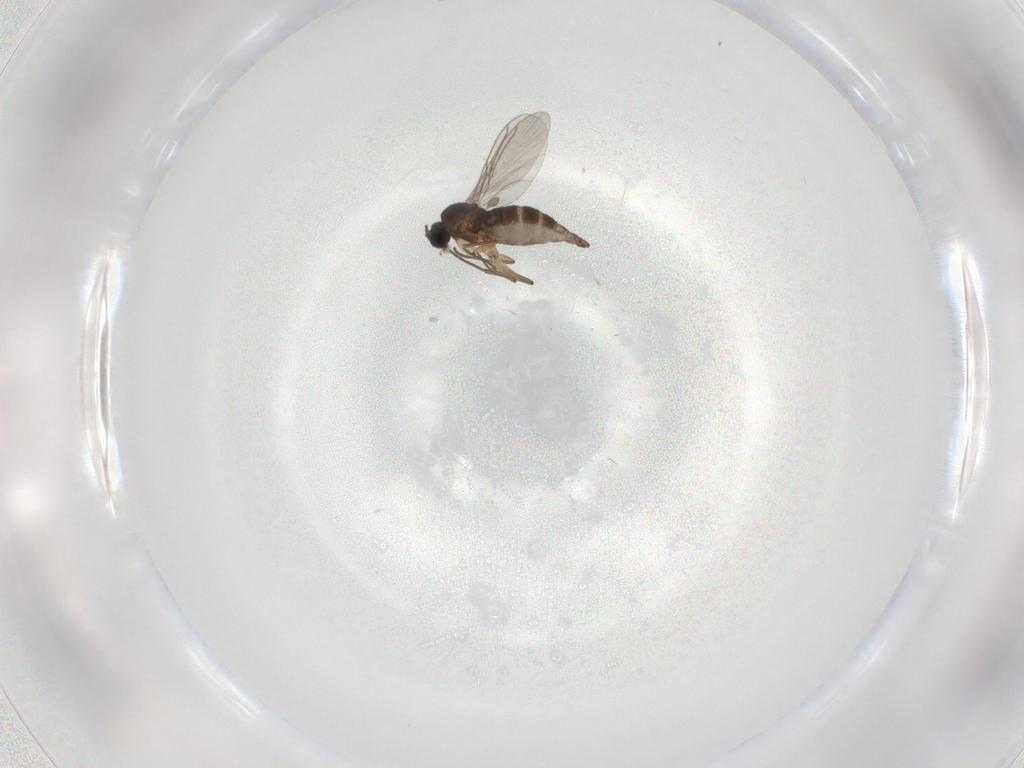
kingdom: Animalia
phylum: Arthropoda
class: Insecta
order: Diptera
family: Sciaridae
